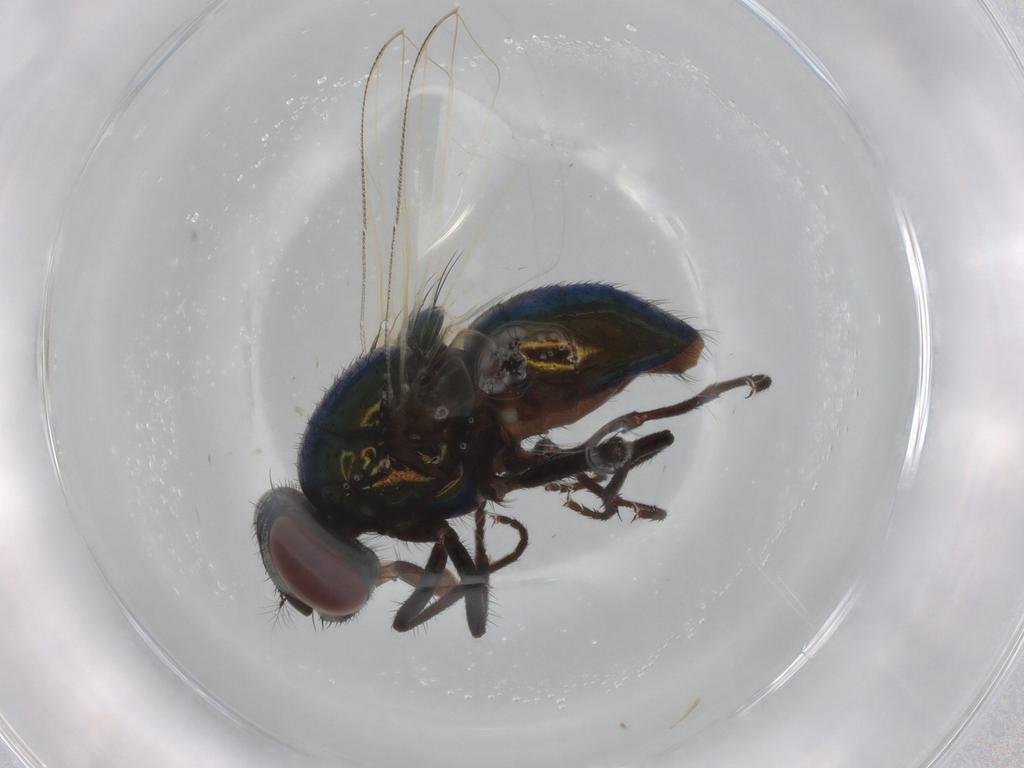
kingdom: Animalia
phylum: Arthropoda
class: Insecta
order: Diptera
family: Muscidae
